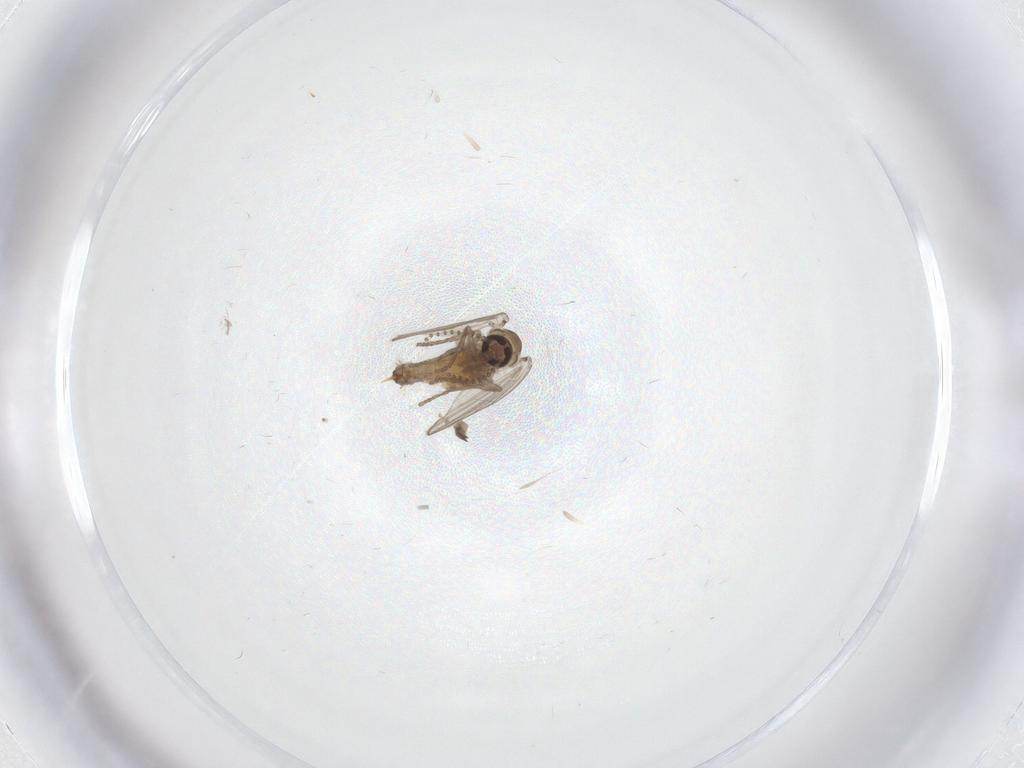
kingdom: Animalia
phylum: Arthropoda
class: Insecta
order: Diptera
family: Psychodidae
